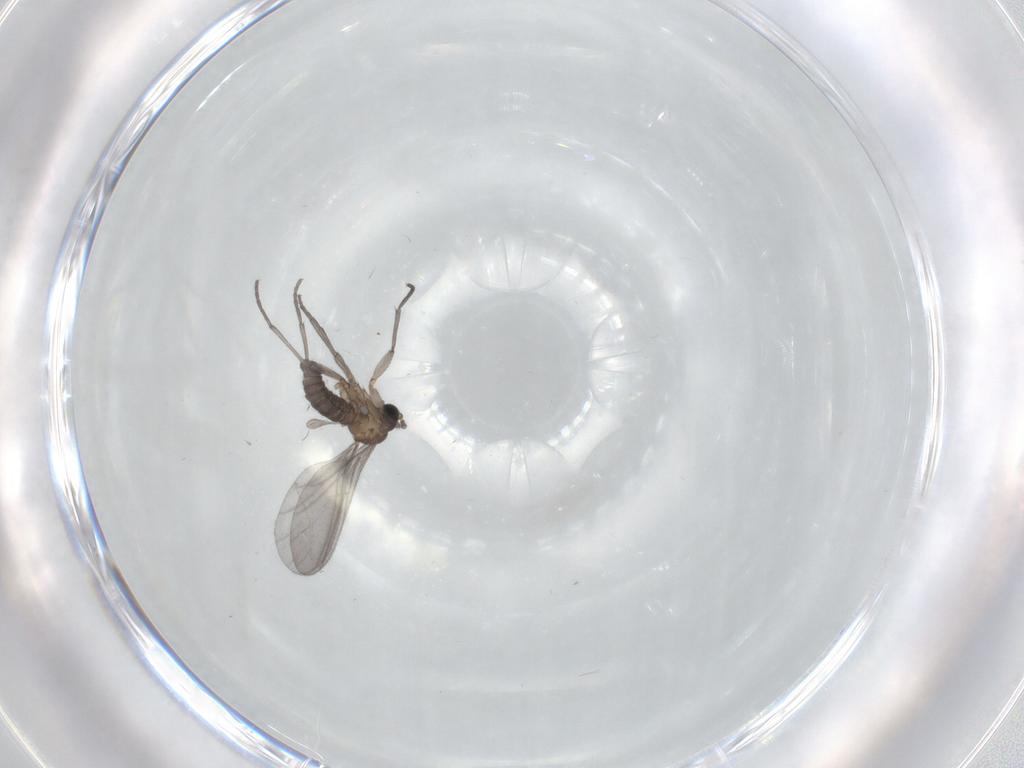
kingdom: Animalia
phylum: Arthropoda
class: Insecta
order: Diptera
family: Sciaridae
